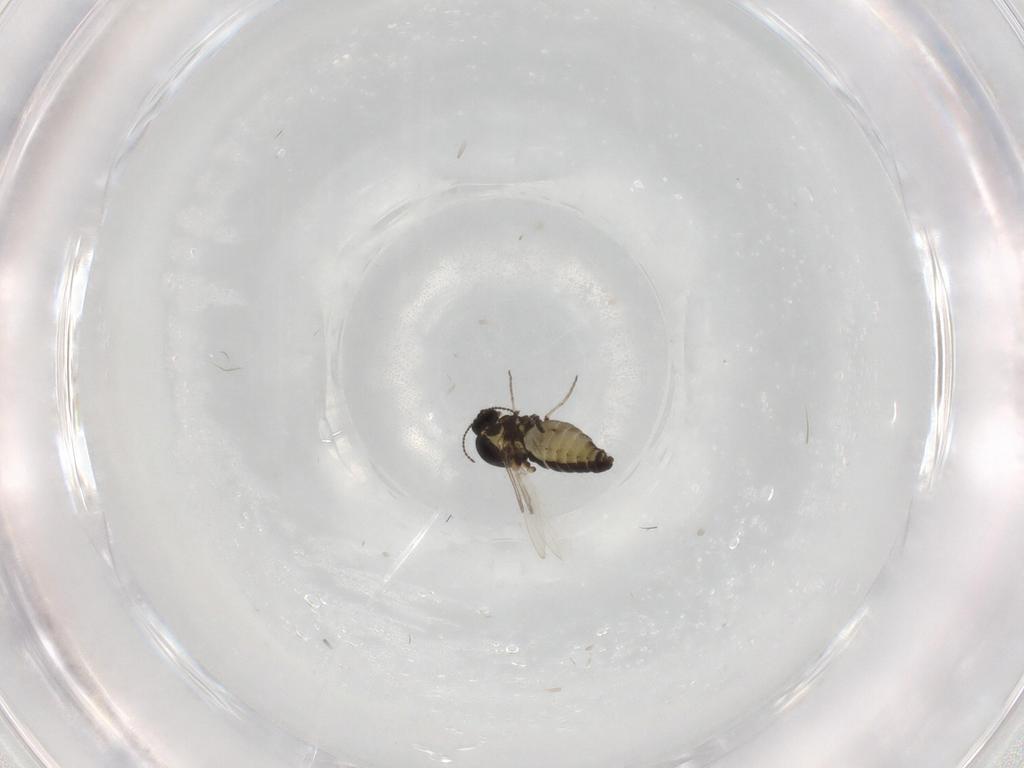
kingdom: Animalia
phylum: Arthropoda
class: Insecta
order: Diptera
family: Ceratopogonidae
